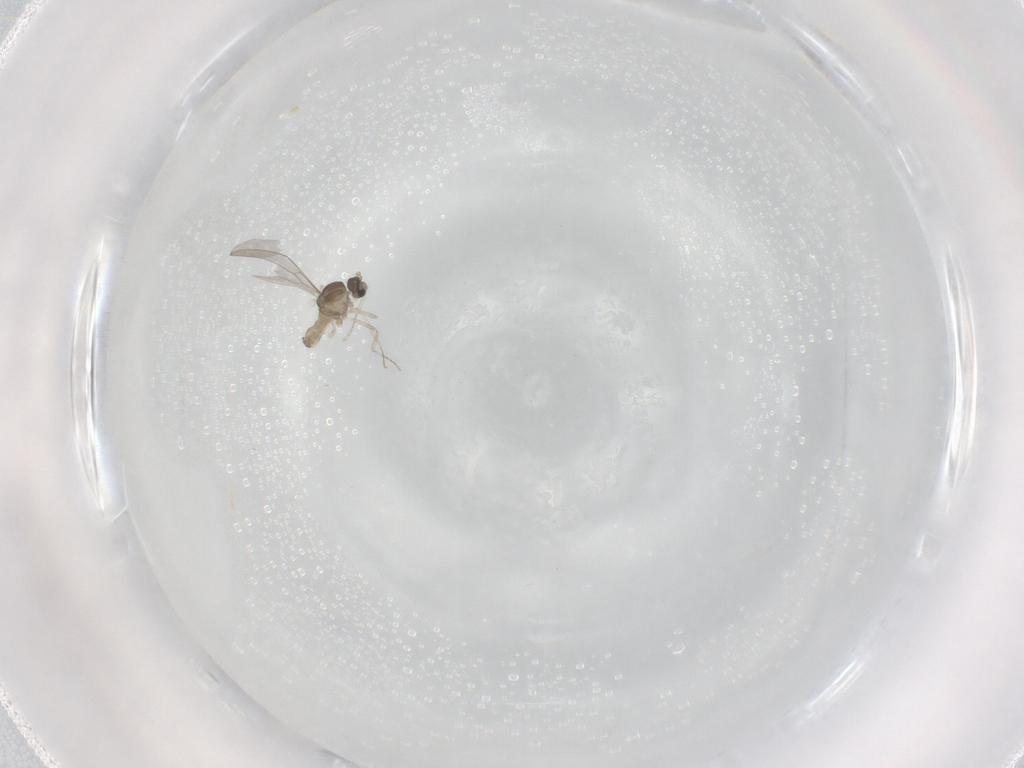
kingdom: Animalia
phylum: Arthropoda
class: Insecta
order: Diptera
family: Cecidomyiidae
